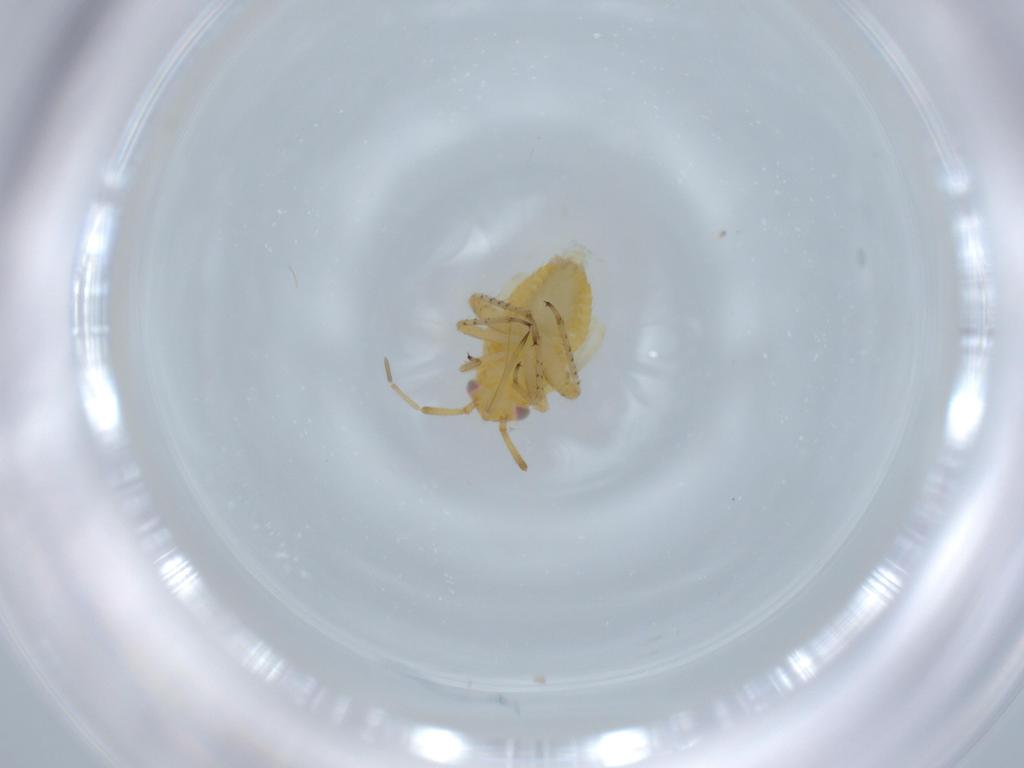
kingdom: Animalia
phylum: Arthropoda
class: Insecta
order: Hemiptera
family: Miridae
